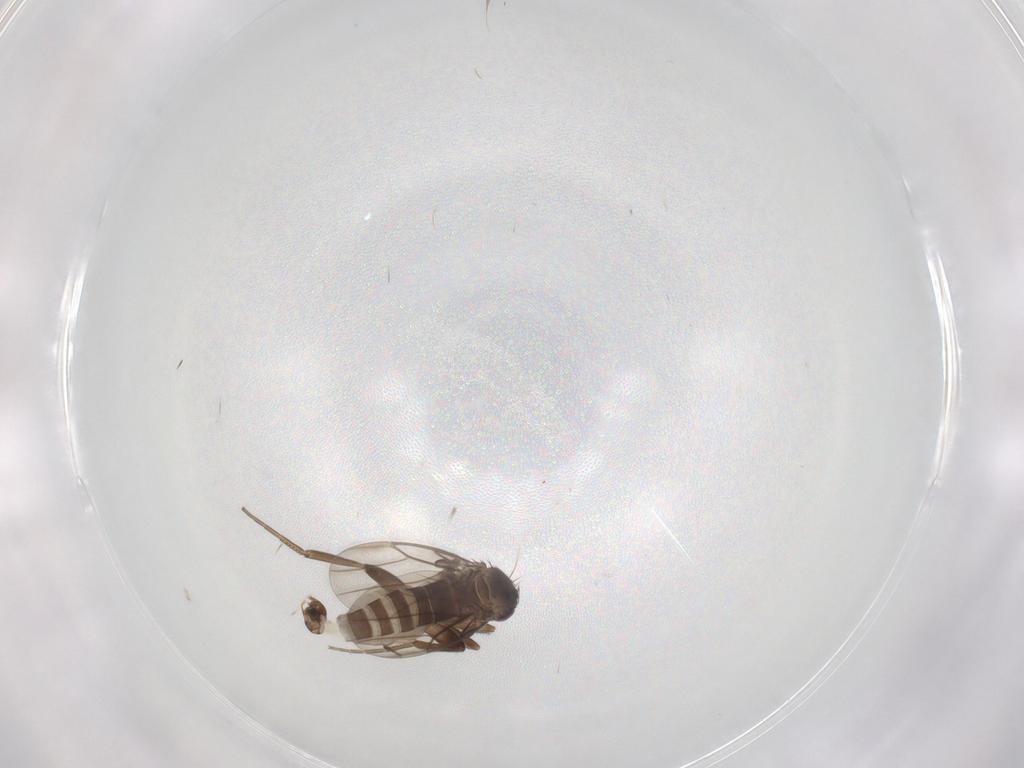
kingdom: Animalia
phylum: Arthropoda
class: Insecta
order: Diptera
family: Phoridae
